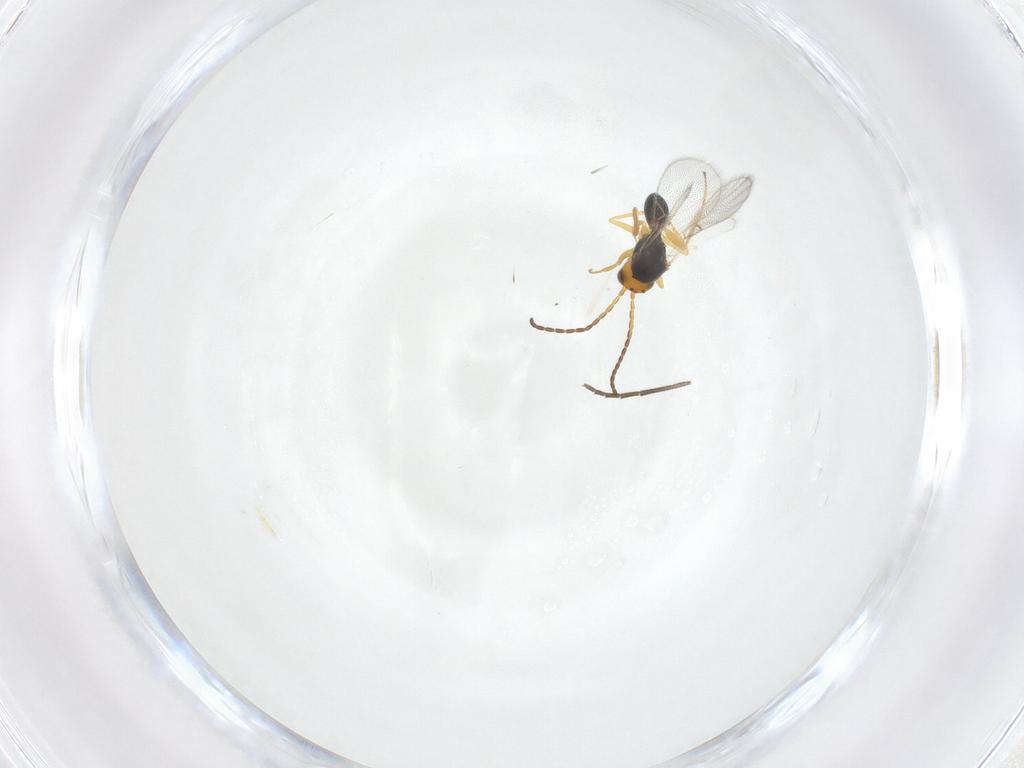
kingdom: Animalia
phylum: Arthropoda
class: Insecta
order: Hymenoptera
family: Figitidae
